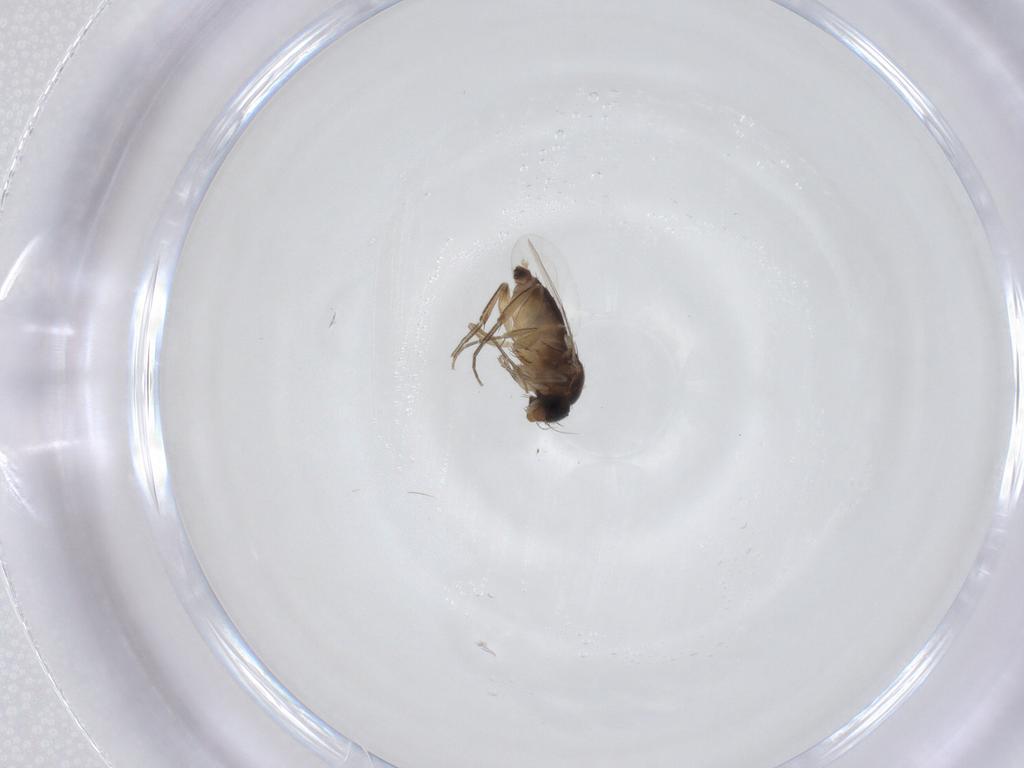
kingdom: Animalia
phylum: Arthropoda
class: Insecta
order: Diptera
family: Phoridae
